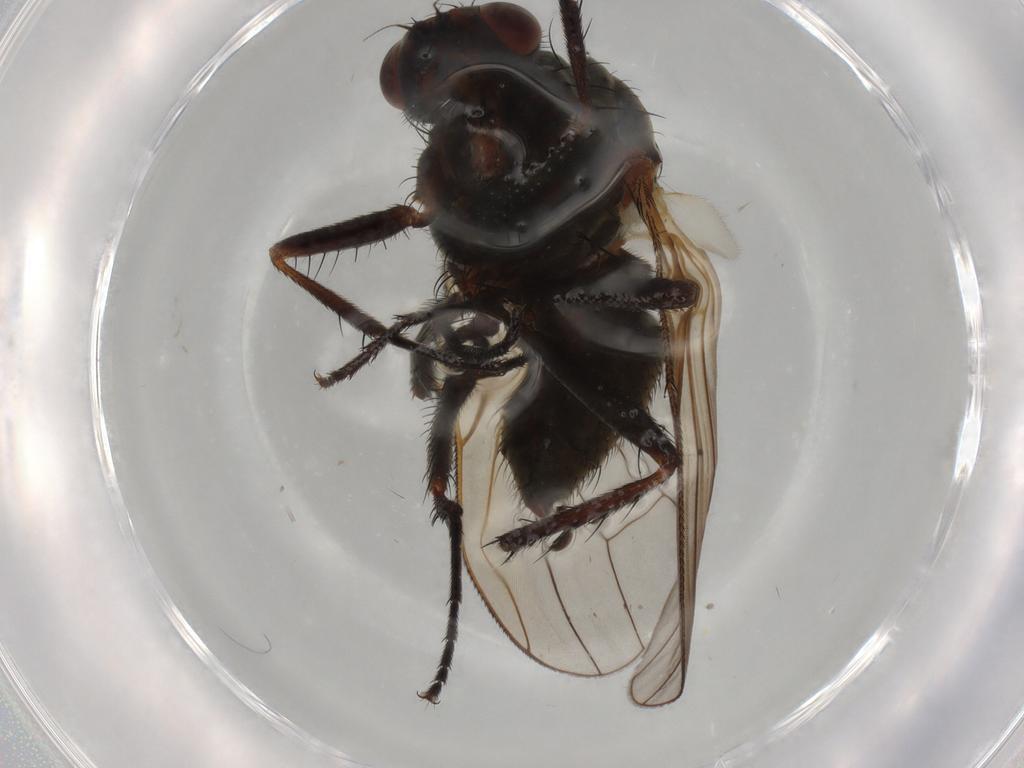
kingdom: Animalia
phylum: Arthropoda
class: Insecta
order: Diptera
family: Anthomyiidae
